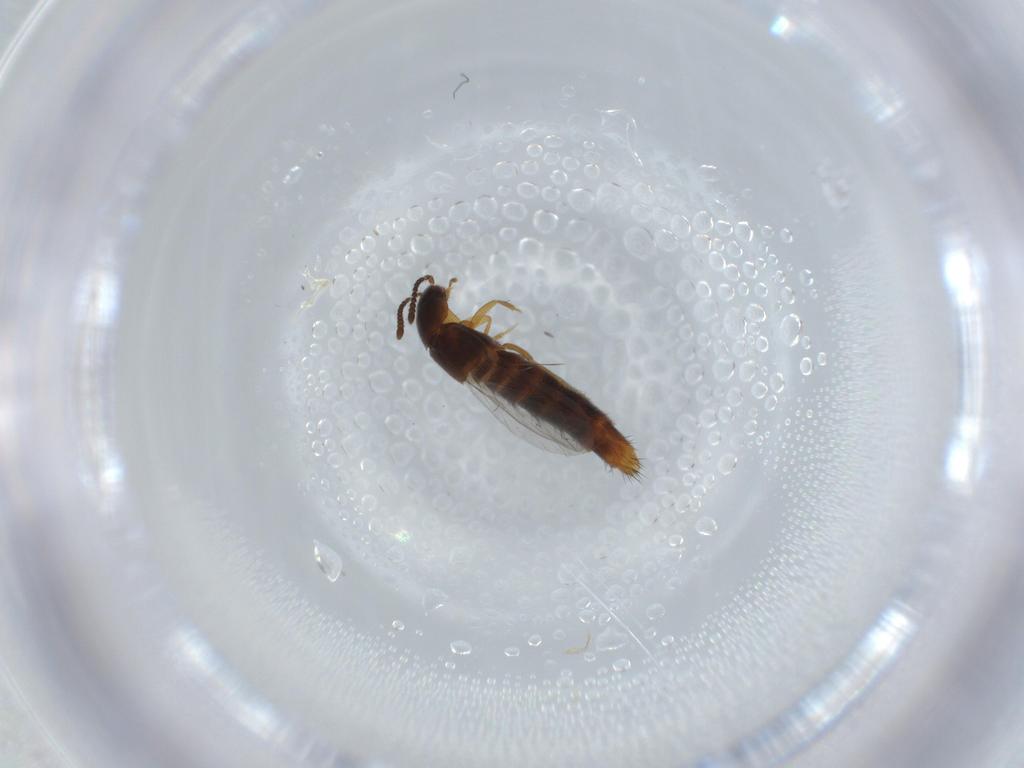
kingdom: Animalia
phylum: Arthropoda
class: Insecta
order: Coleoptera
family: Staphylinidae
